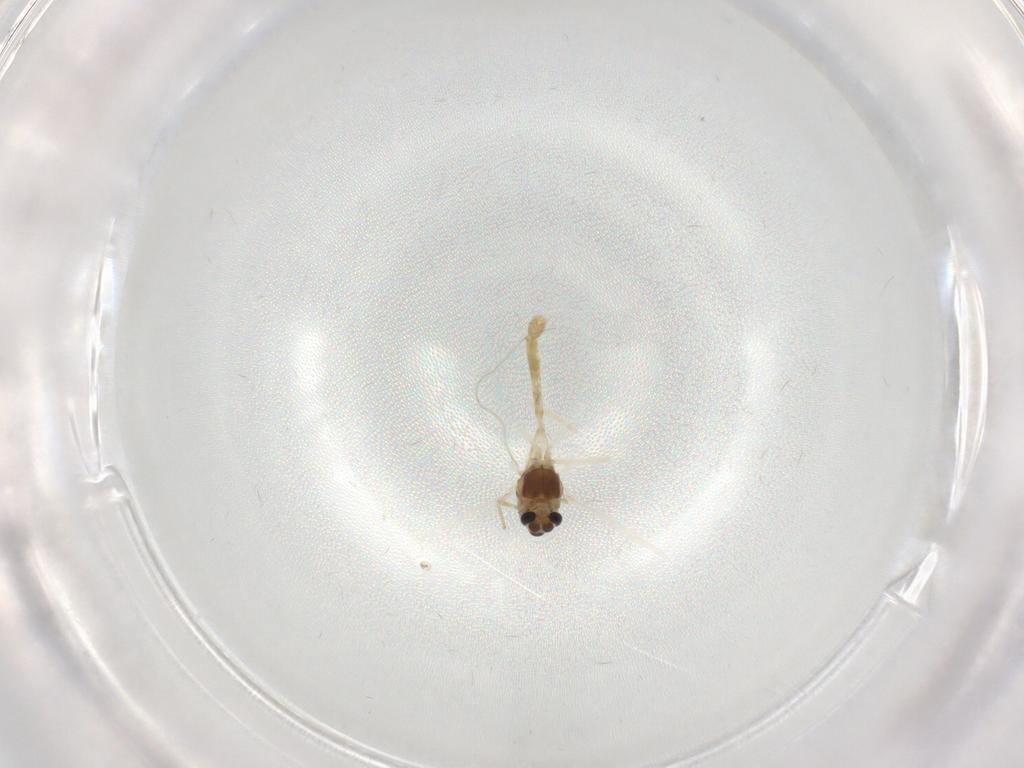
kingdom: Animalia
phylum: Arthropoda
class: Insecta
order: Diptera
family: Chironomidae
